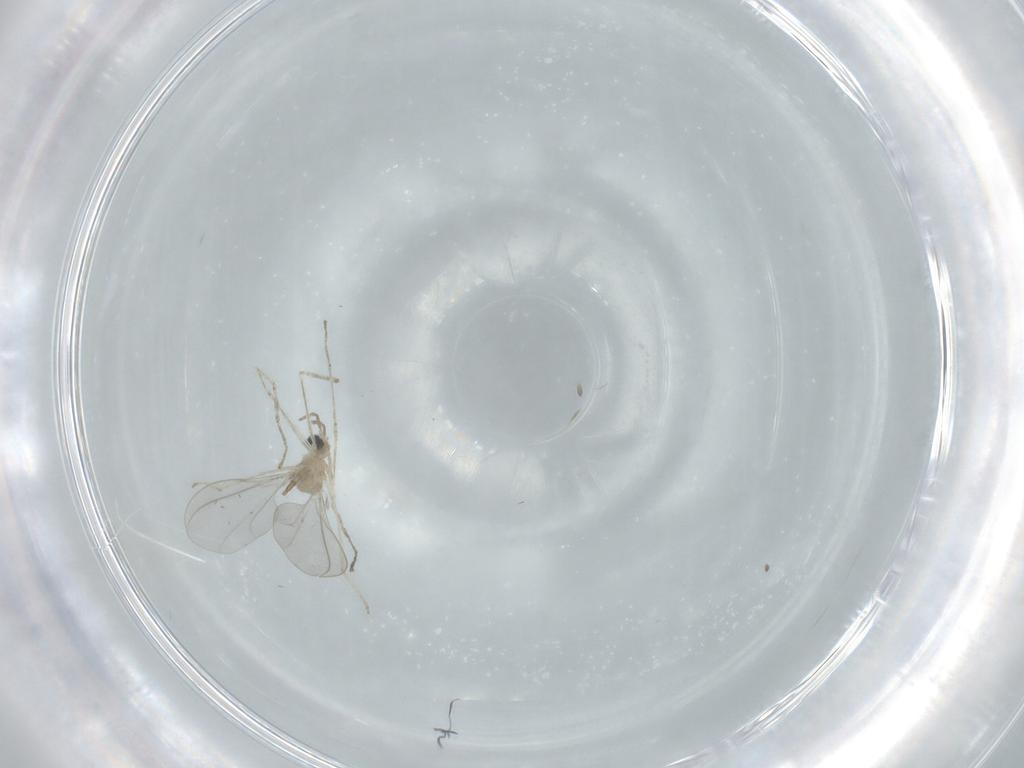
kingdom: Animalia
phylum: Arthropoda
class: Insecta
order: Diptera
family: Cecidomyiidae
